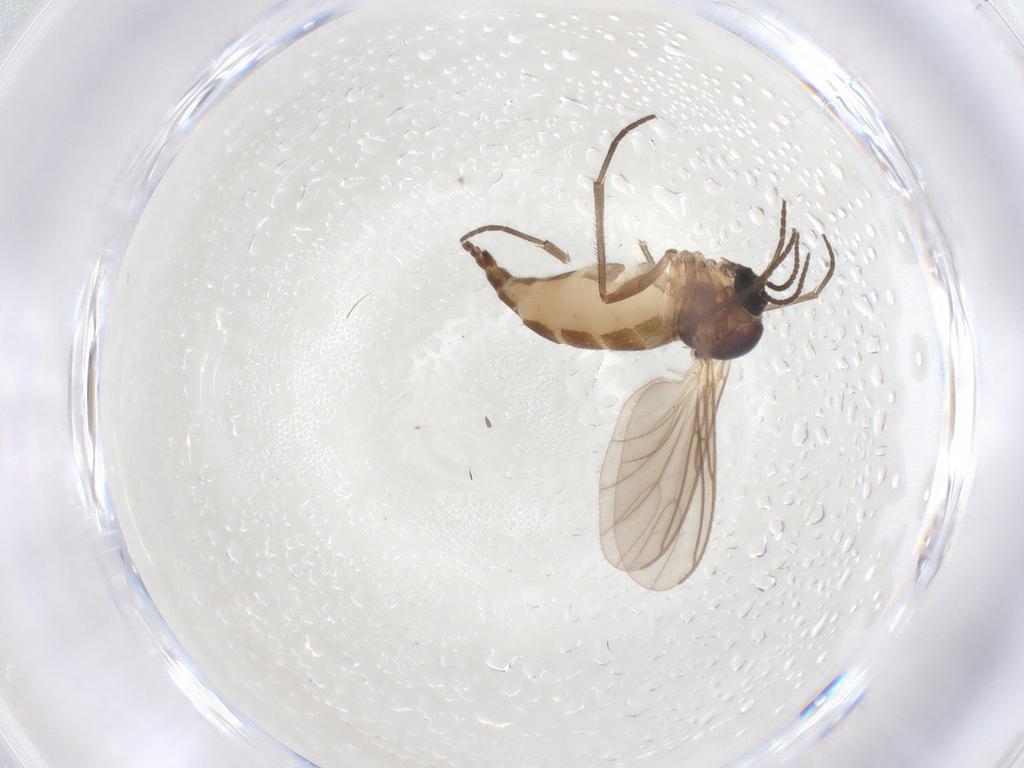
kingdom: Animalia
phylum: Arthropoda
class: Insecta
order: Diptera
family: Sciaridae
